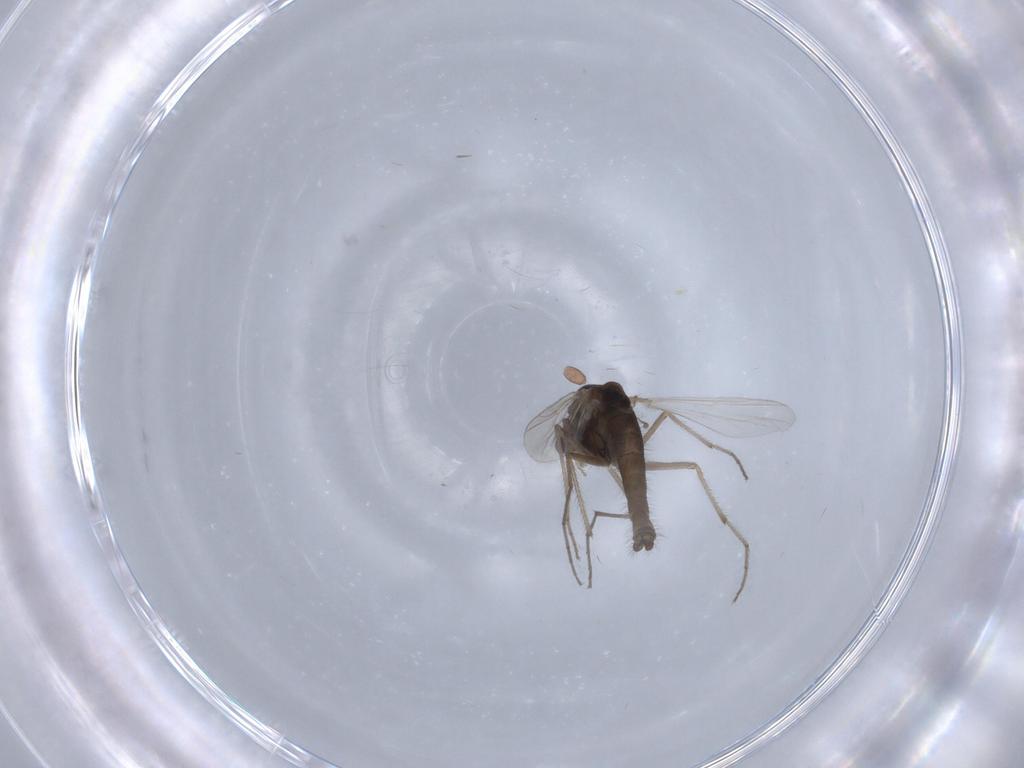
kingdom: Animalia
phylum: Arthropoda
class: Insecta
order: Diptera
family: Chironomidae
